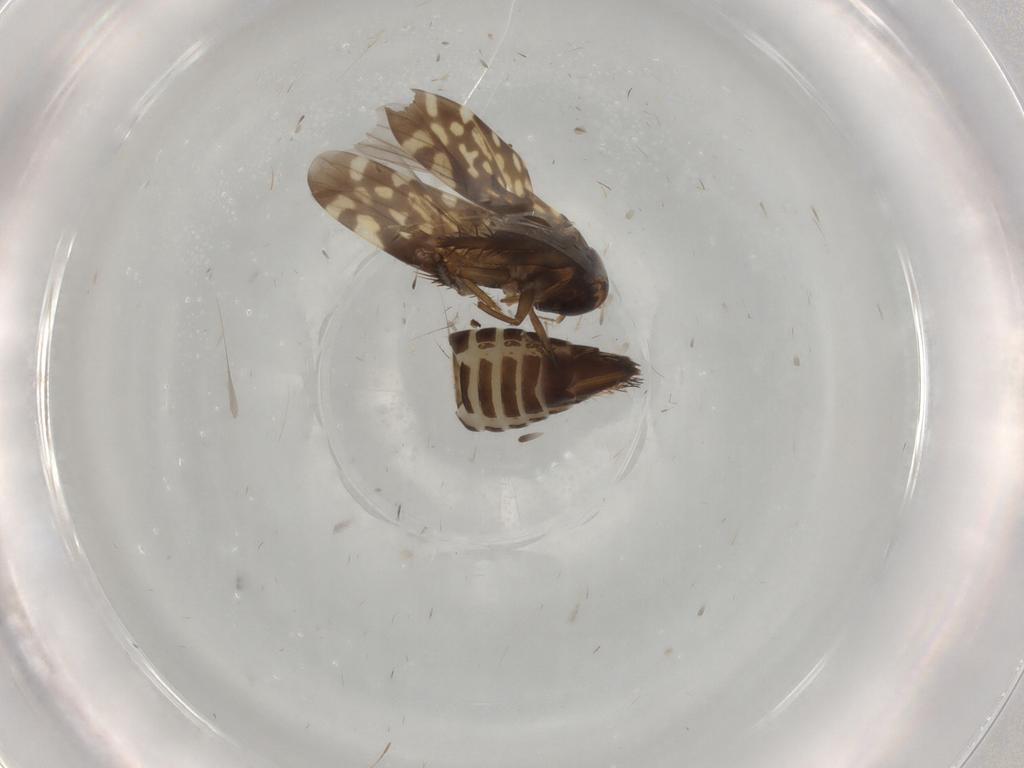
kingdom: Animalia
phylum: Arthropoda
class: Insecta
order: Hemiptera
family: Cicadellidae
